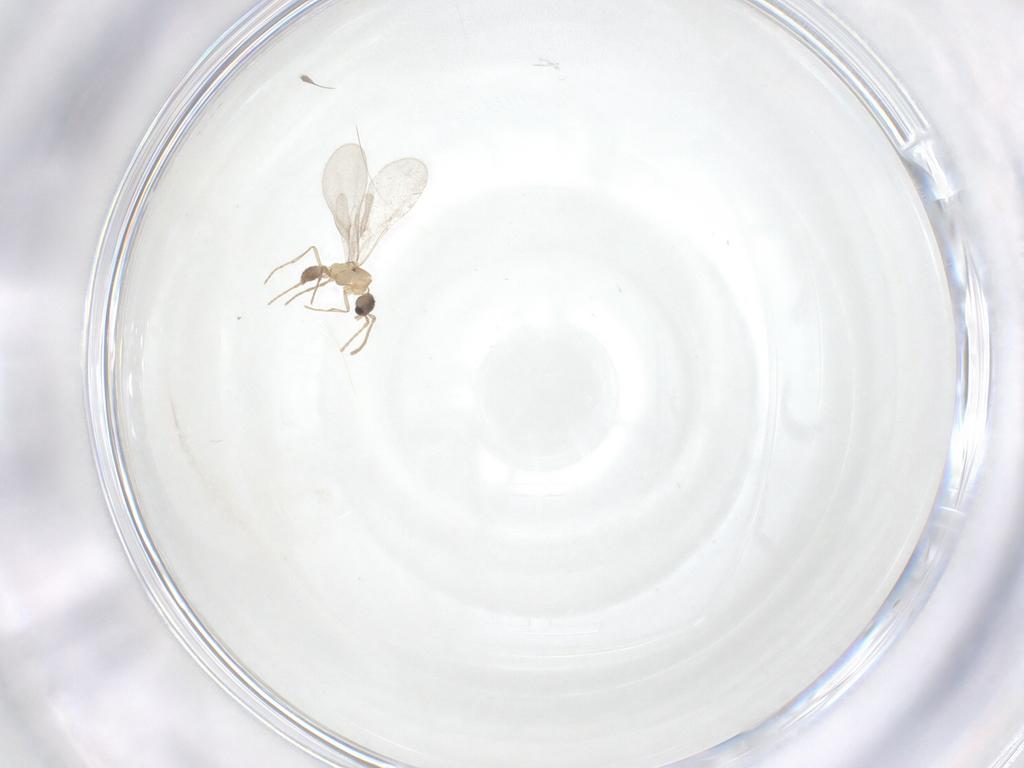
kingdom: Animalia
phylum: Arthropoda
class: Insecta
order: Hymenoptera
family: Formicidae
